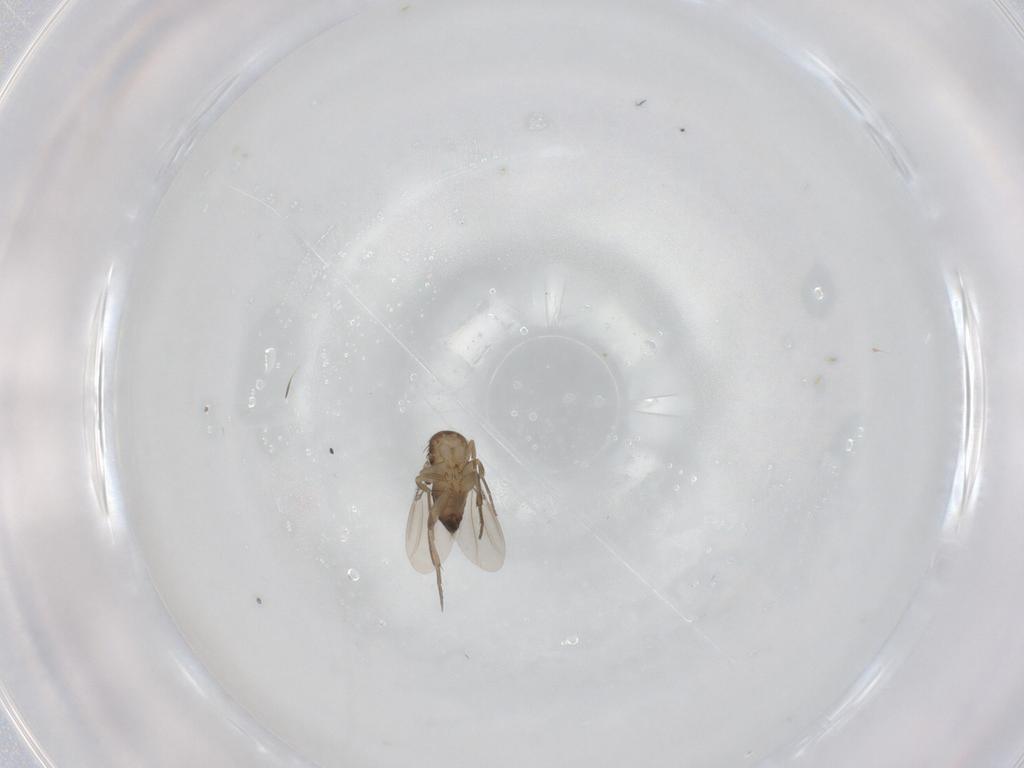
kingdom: Animalia
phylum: Arthropoda
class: Insecta
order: Diptera
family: Phoridae
